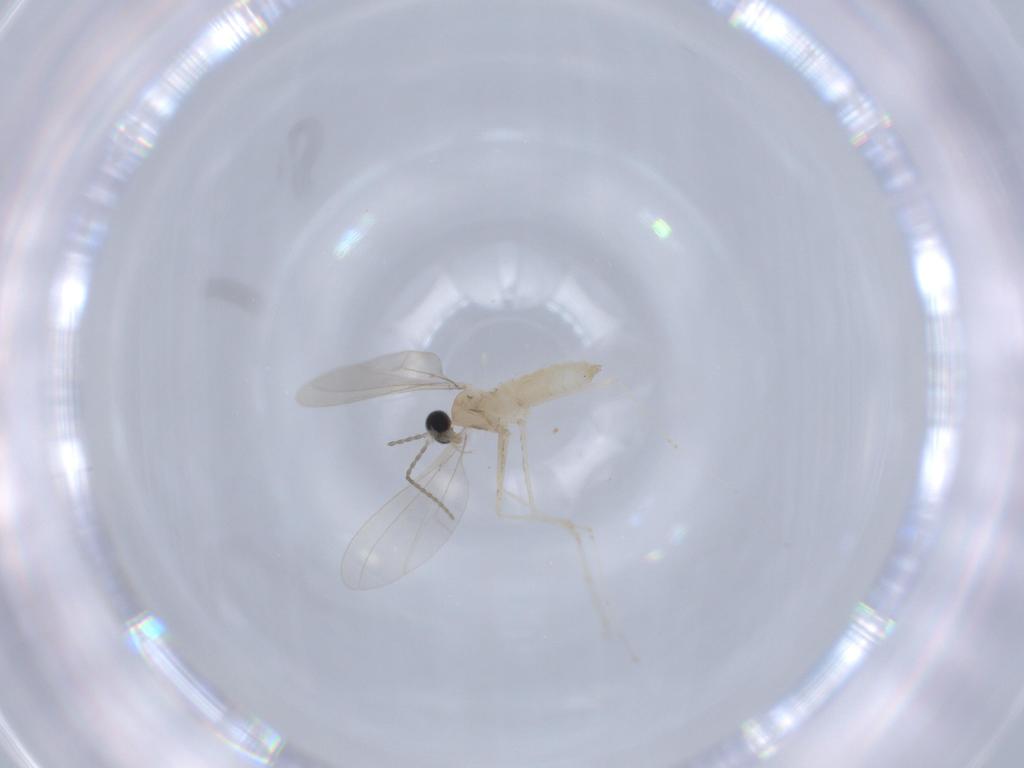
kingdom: Animalia
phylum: Arthropoda
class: Insecta
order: Diptera
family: Cecidomyiidae
